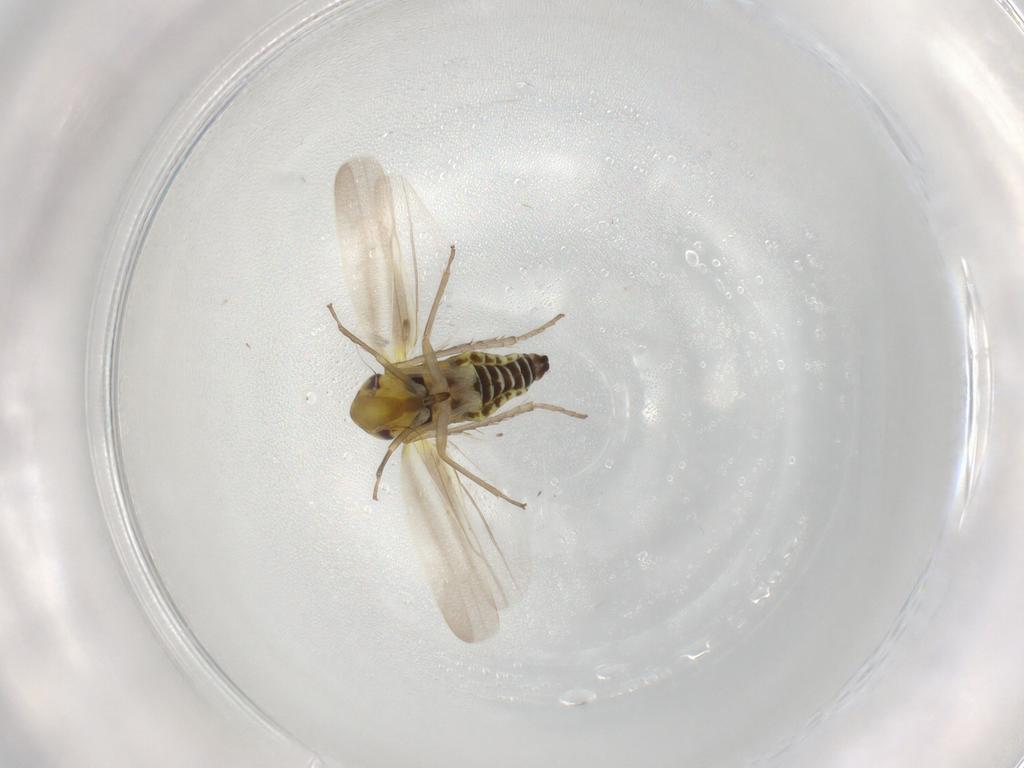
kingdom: Animalia
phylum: Arthropoda
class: Insecta
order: Hemiptera
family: Cicadellidae
